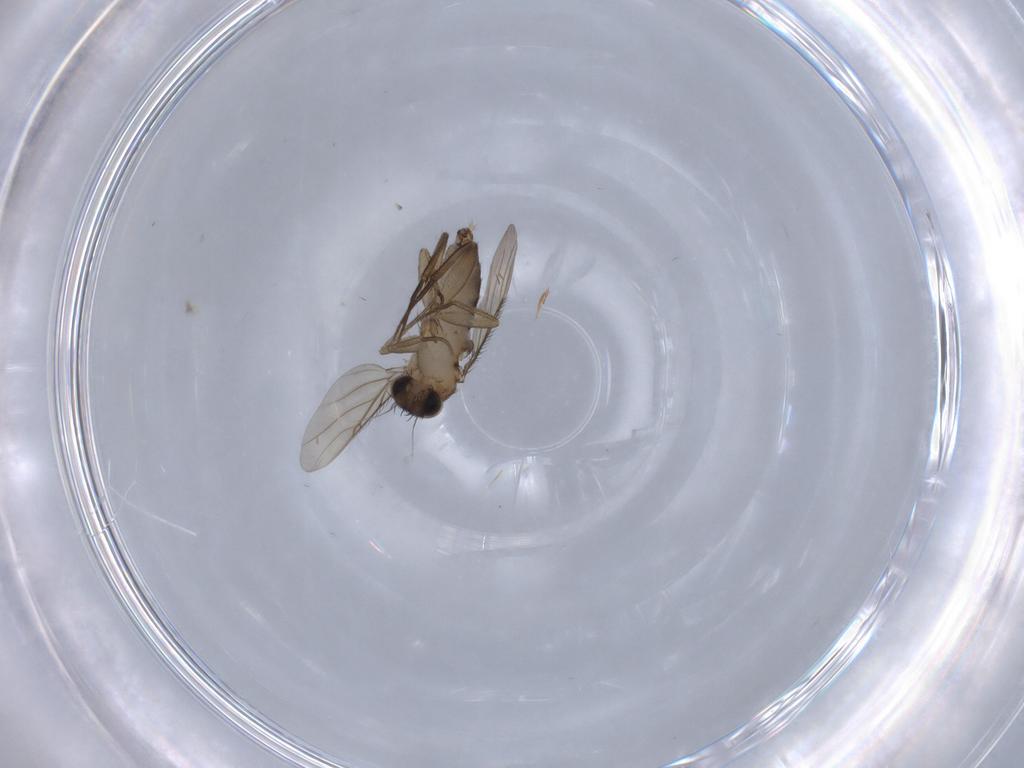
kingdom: Animalia
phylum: Arthropoda
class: Insecta
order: Diptera
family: Phoridae
